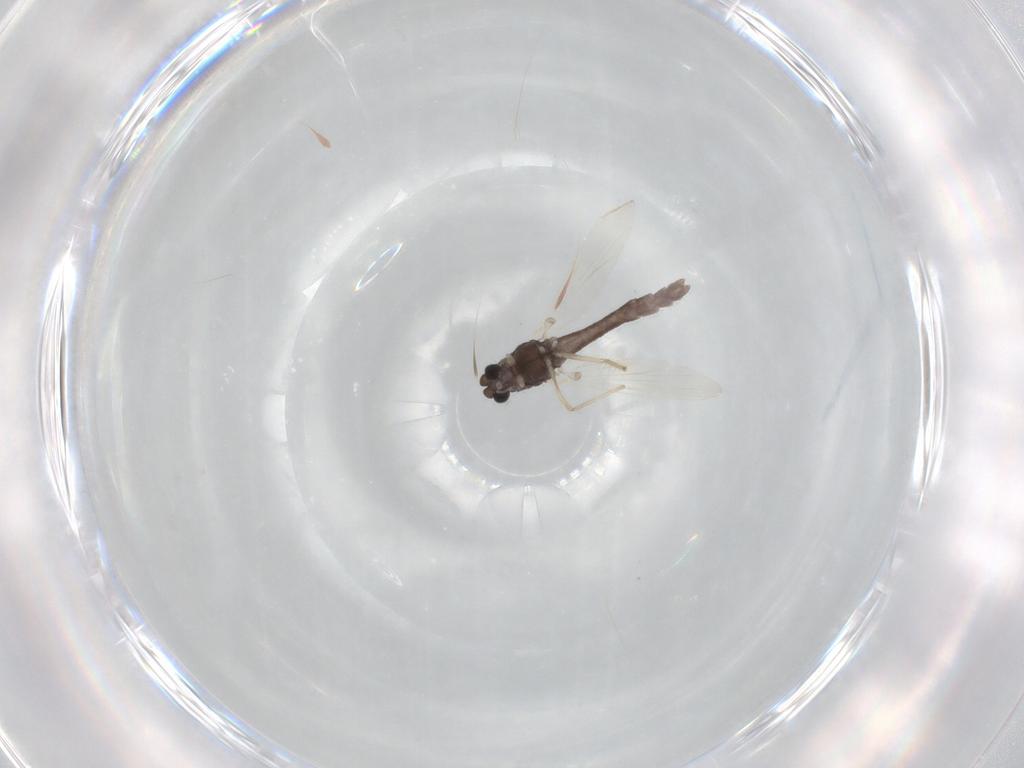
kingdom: Animalia
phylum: Arthropoda
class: Insecta
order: Diptera
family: Chironomidae
